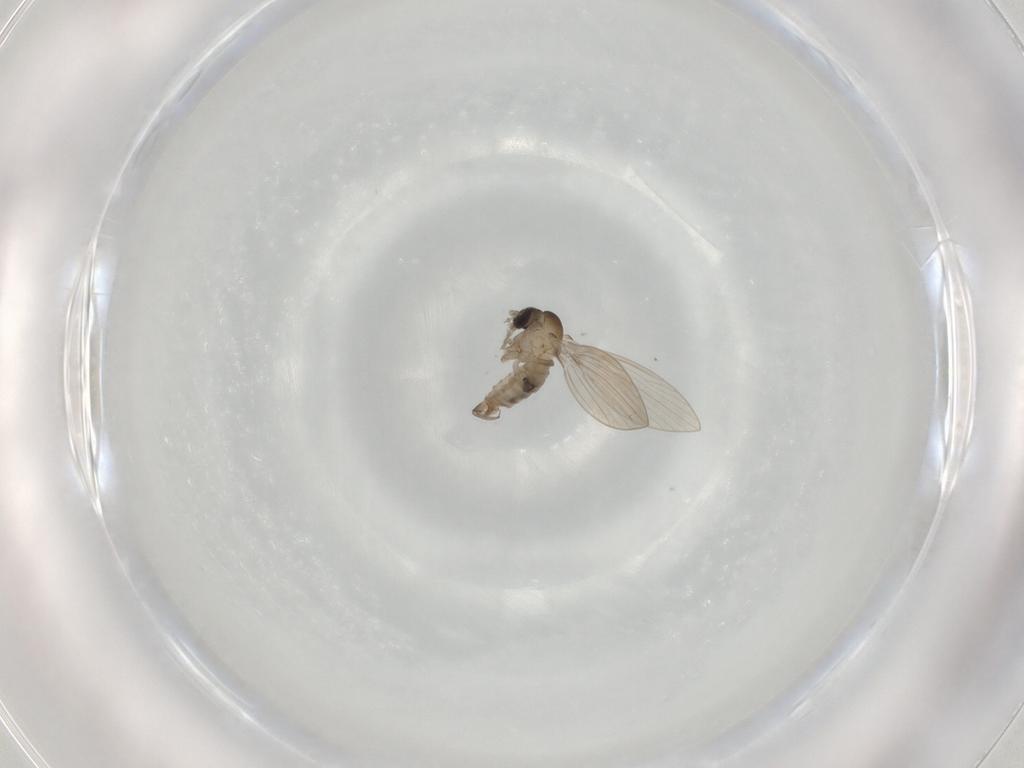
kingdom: Animalia
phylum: Arthropoda
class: Insecta
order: Diptera
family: Psychodidae
